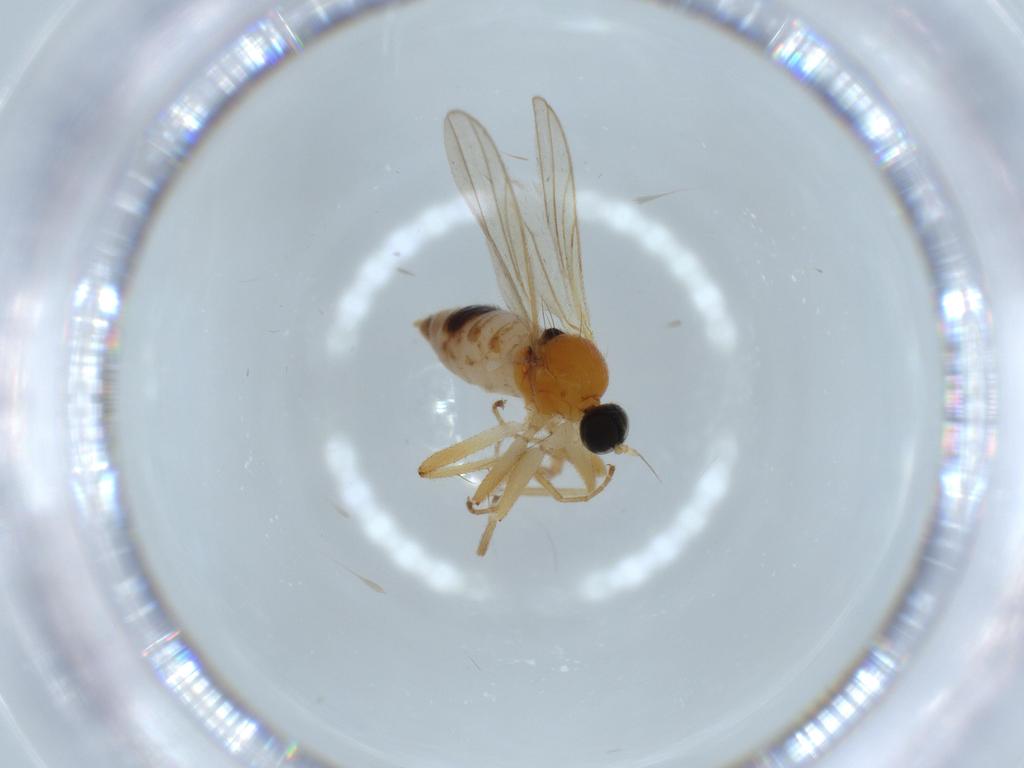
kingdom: Animalia
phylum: Arthropoda
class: Insecta
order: Diptera
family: Hybotidae
